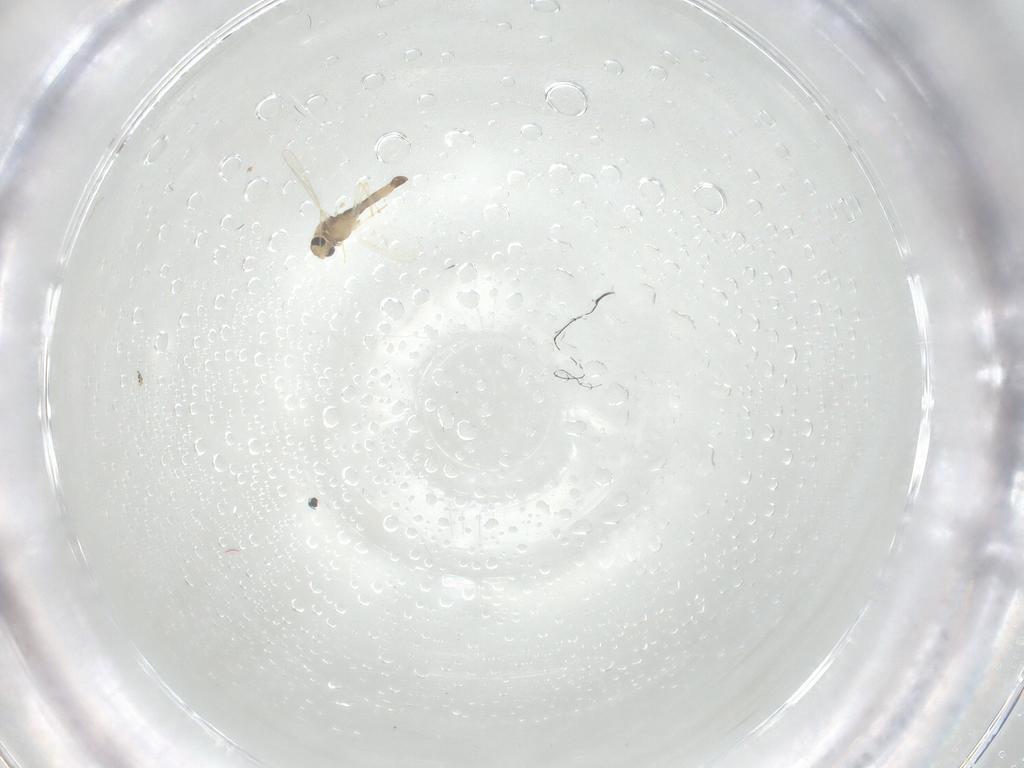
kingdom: Animalia
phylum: Arthropoda
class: Insecta
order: Diptera
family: Chironomidae
